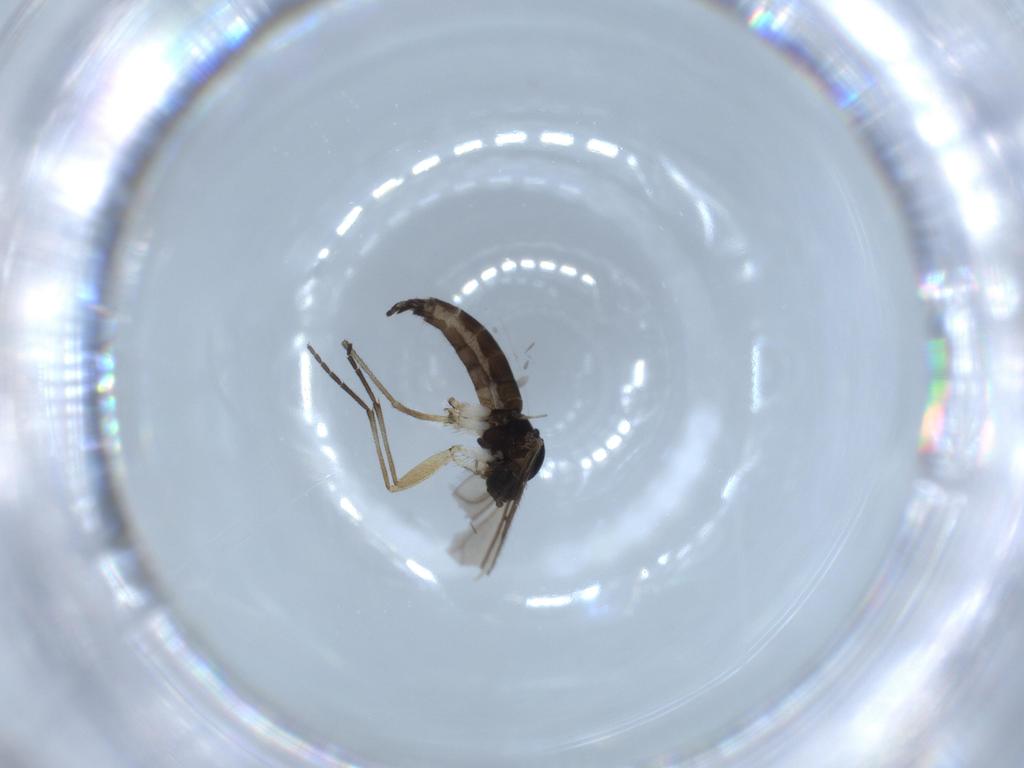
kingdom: Animalia
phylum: Arthropoda
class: Insecta
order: Diptera
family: Sciaridae
